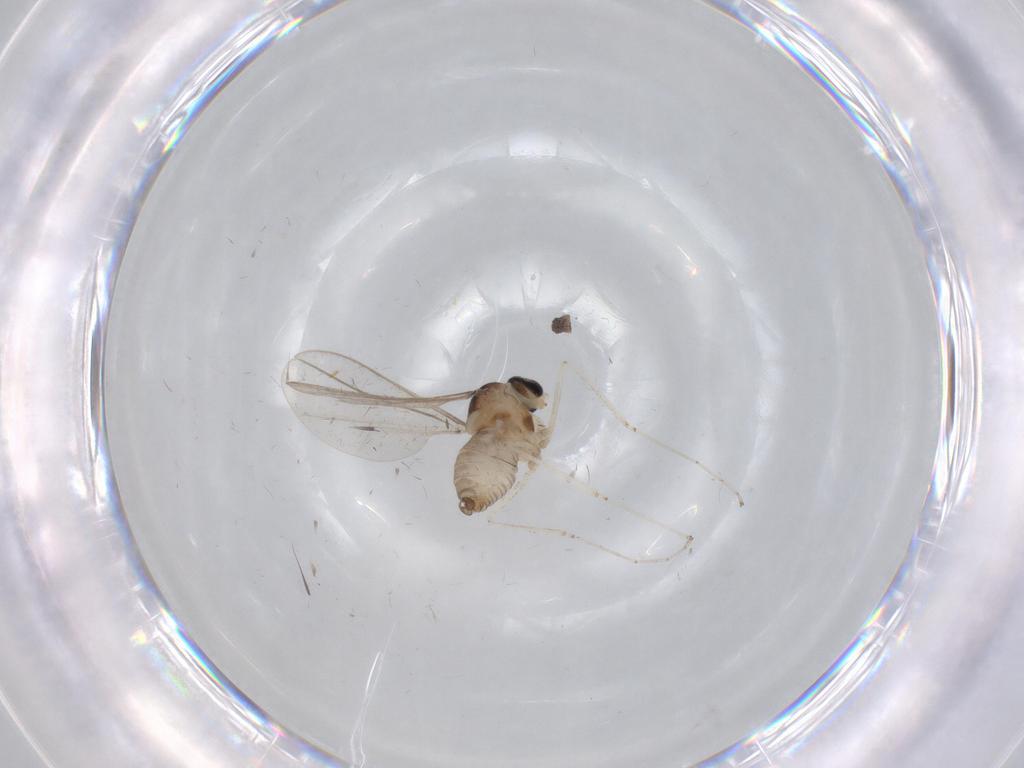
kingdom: Animalia
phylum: Arthropoda
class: Insecta
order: Diptera
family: Cecidomyiidae
